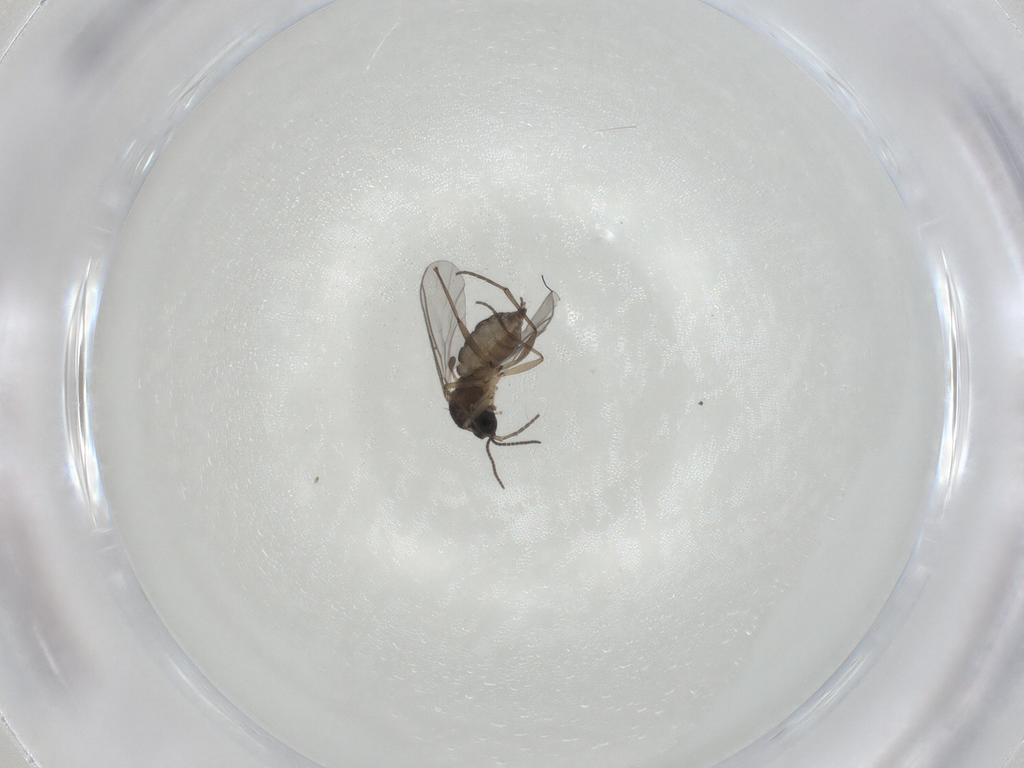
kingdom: Animalia
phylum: Arthropoda
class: Insecta
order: Diptera
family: Sciaridae
